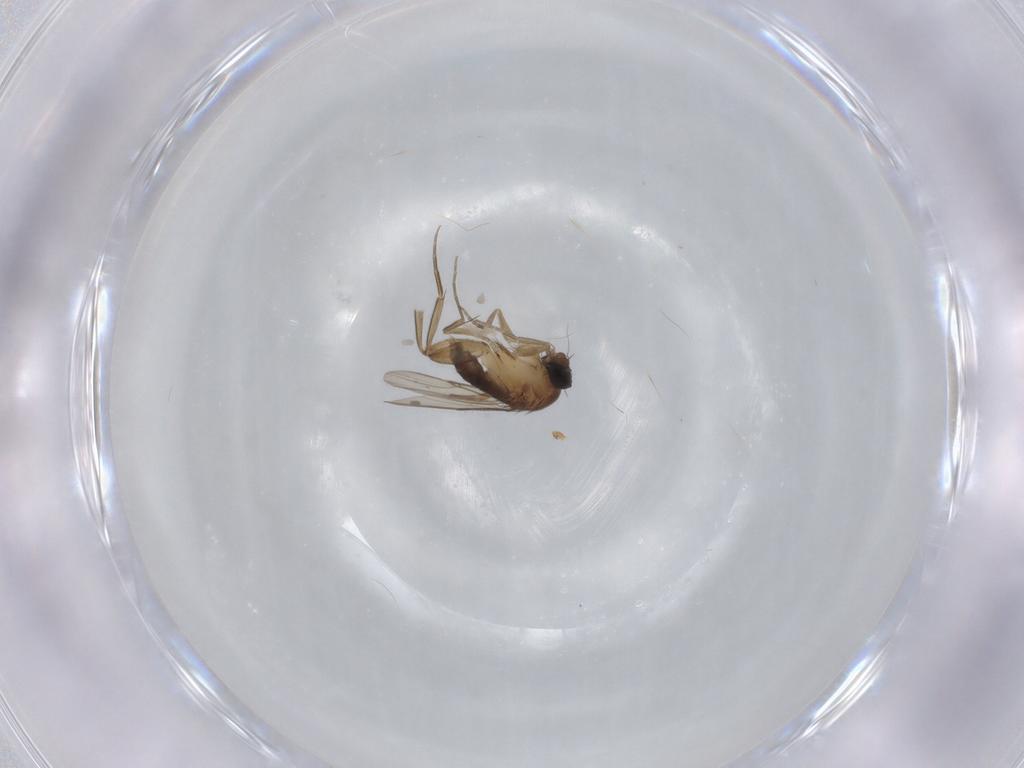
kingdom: Animalia
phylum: Arthropoda
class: Insecta
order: Diptera
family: Phoridae
